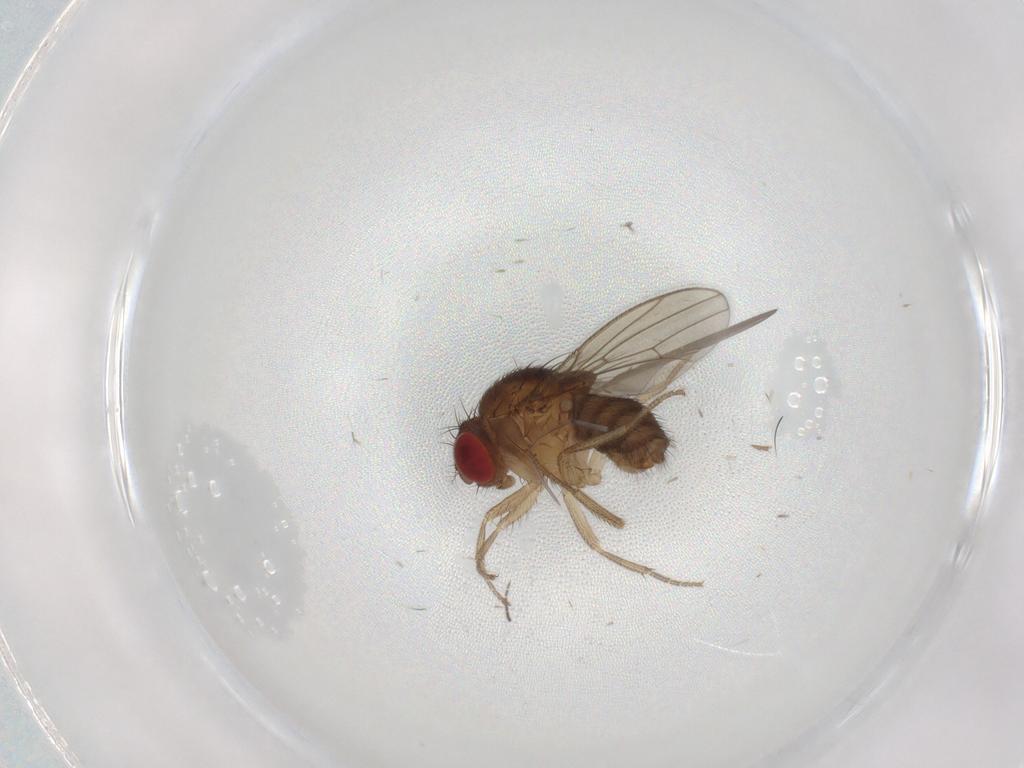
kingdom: Animalia
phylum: Arthropoda
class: Insecta
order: Diptera
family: Drosophilidae
